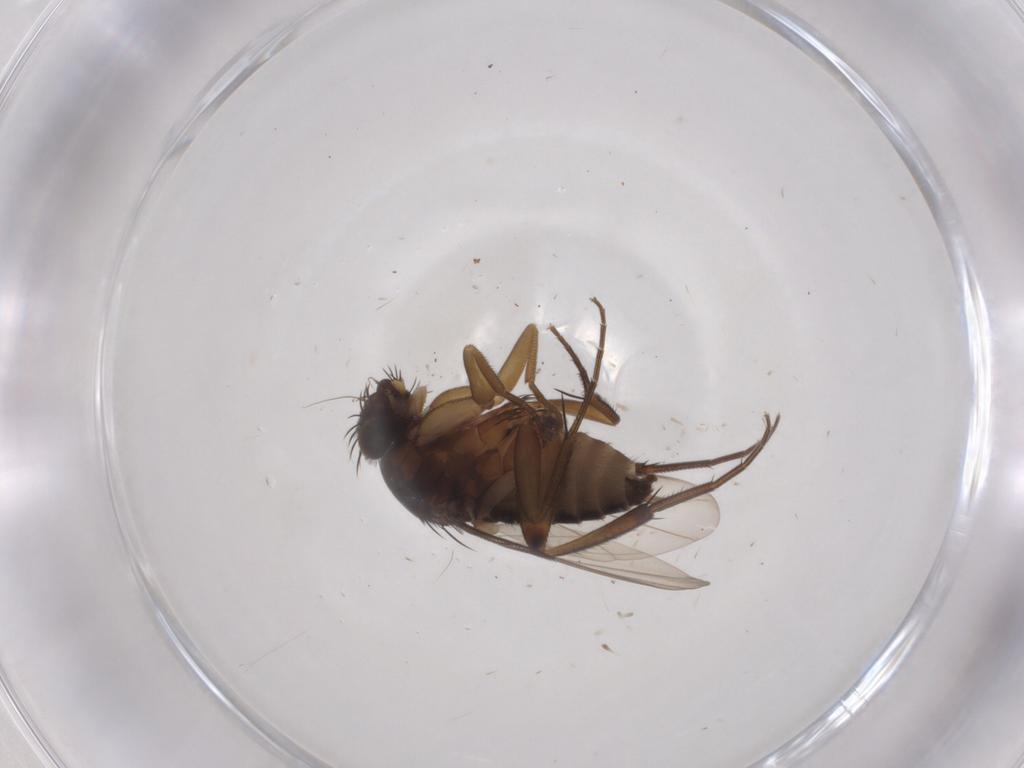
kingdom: Animalia
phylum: Arthropoda
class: Insecta
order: Diptera
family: Phoridae
